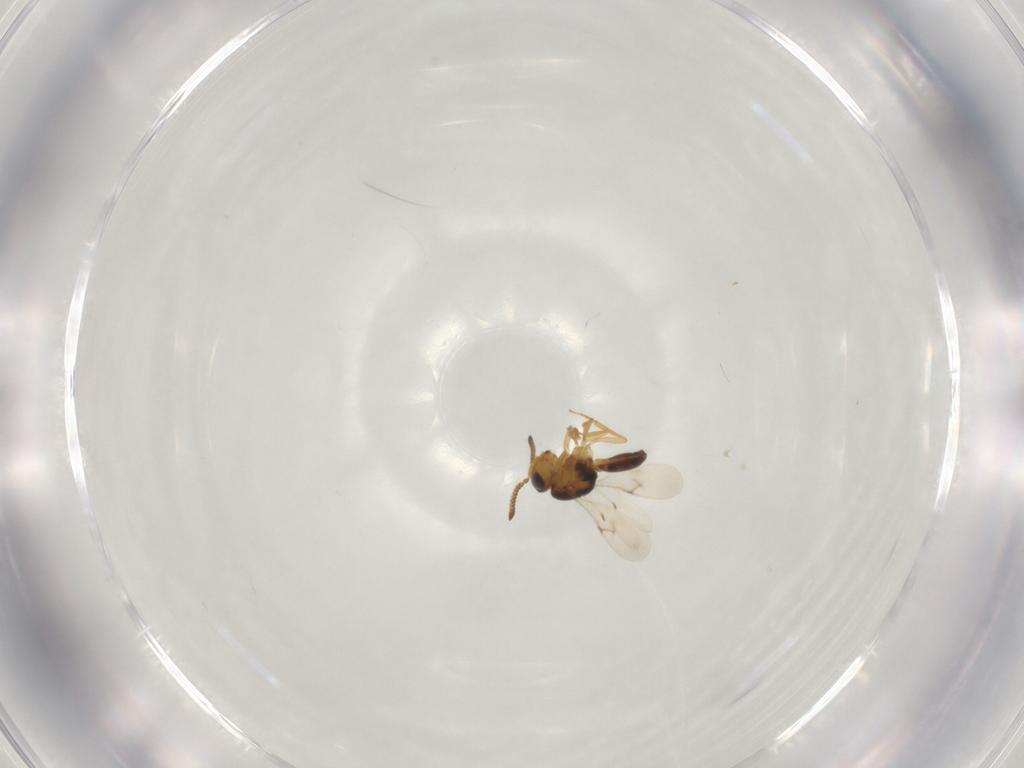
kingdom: Animalia
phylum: Arthropoda
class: Insecta
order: Hymenoptera
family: Scelionidae
